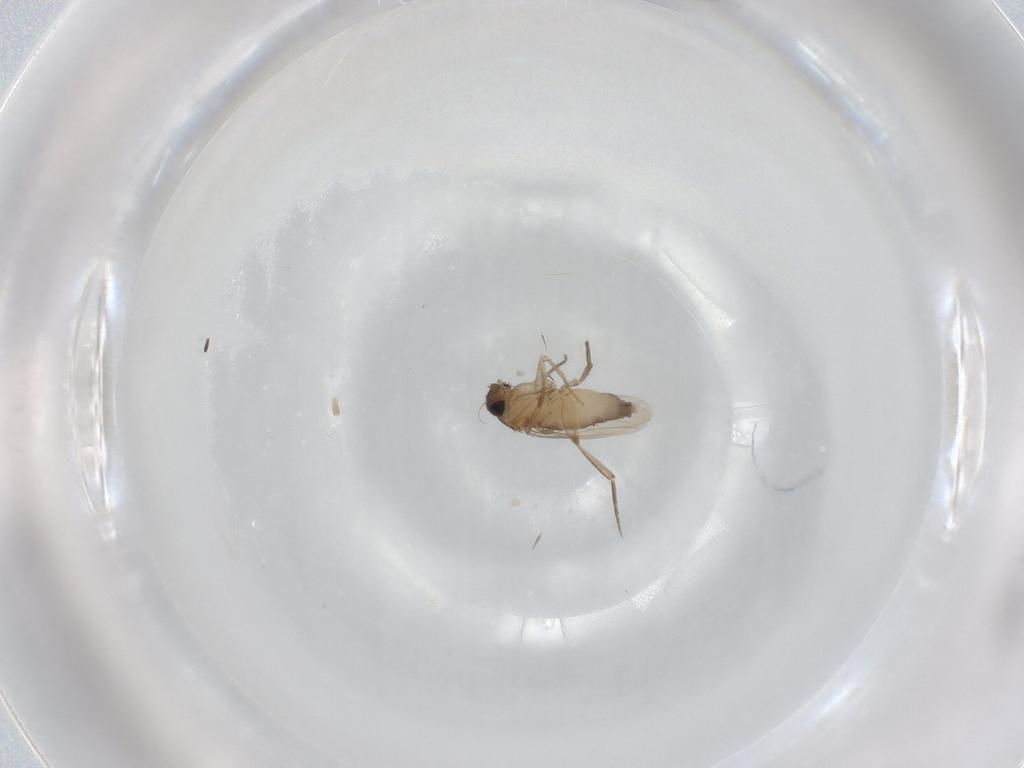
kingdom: Animalia
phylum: Arthropoda
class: Insecta
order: Diptera
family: Phoridae
